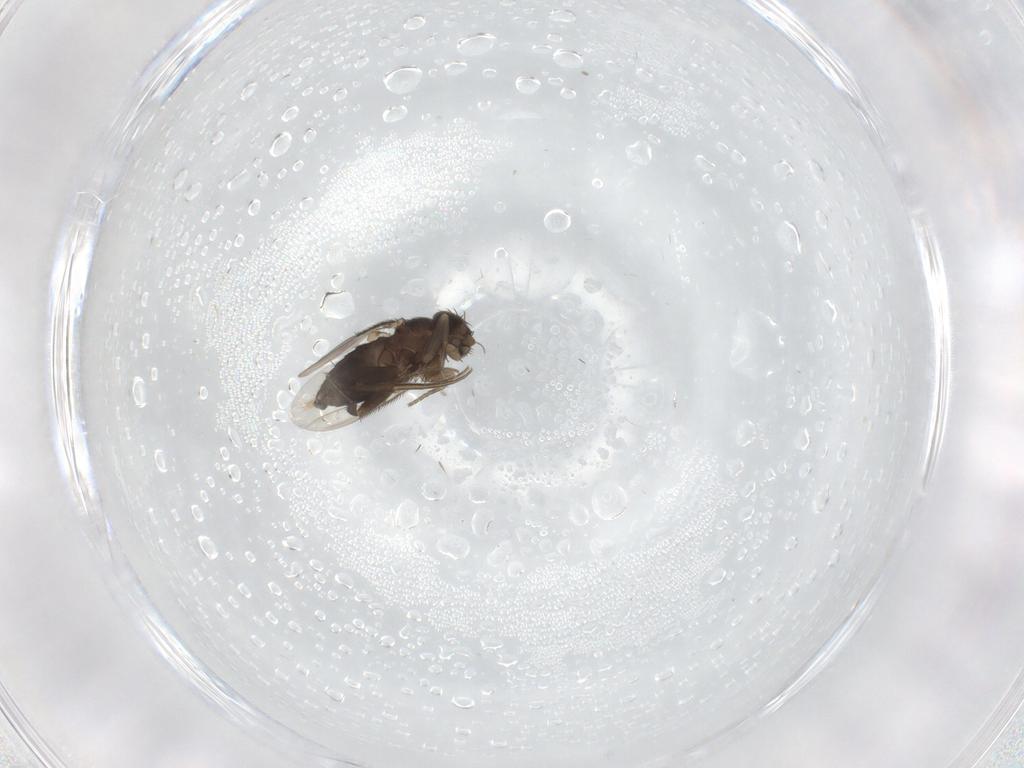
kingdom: Animalia
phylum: Arthropoda
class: Insecta
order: Diptera
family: Phoridae
